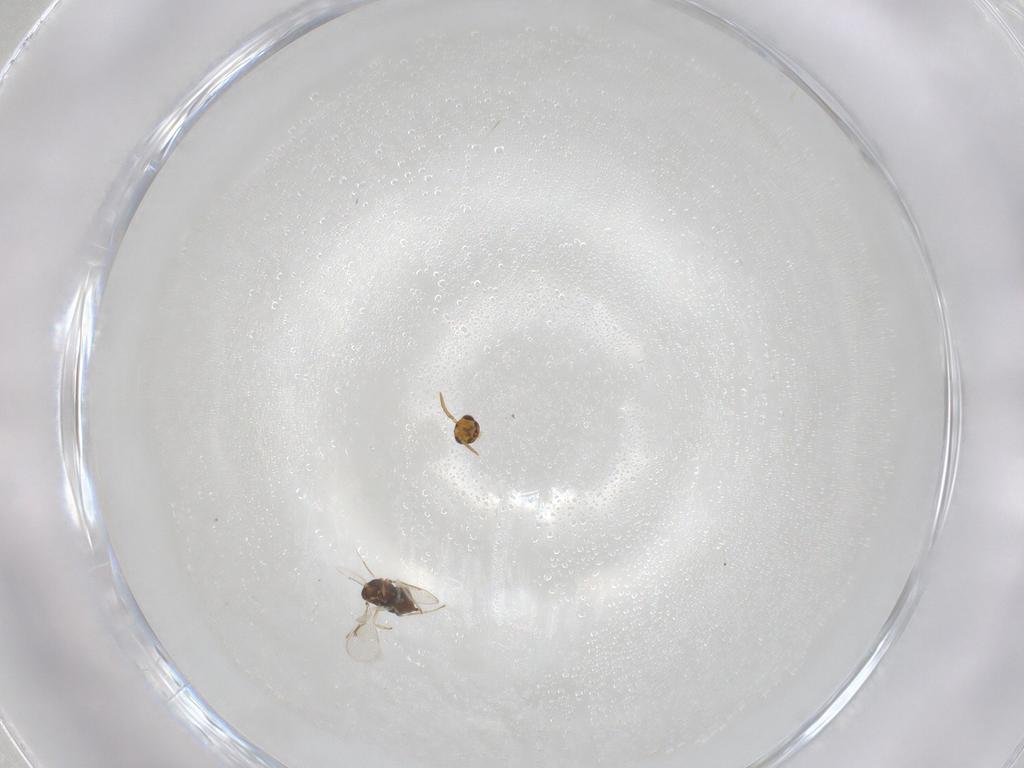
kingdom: Animalia
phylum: Arthropoda
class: Insecta
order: Hymenoptera
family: Aphelinidae
